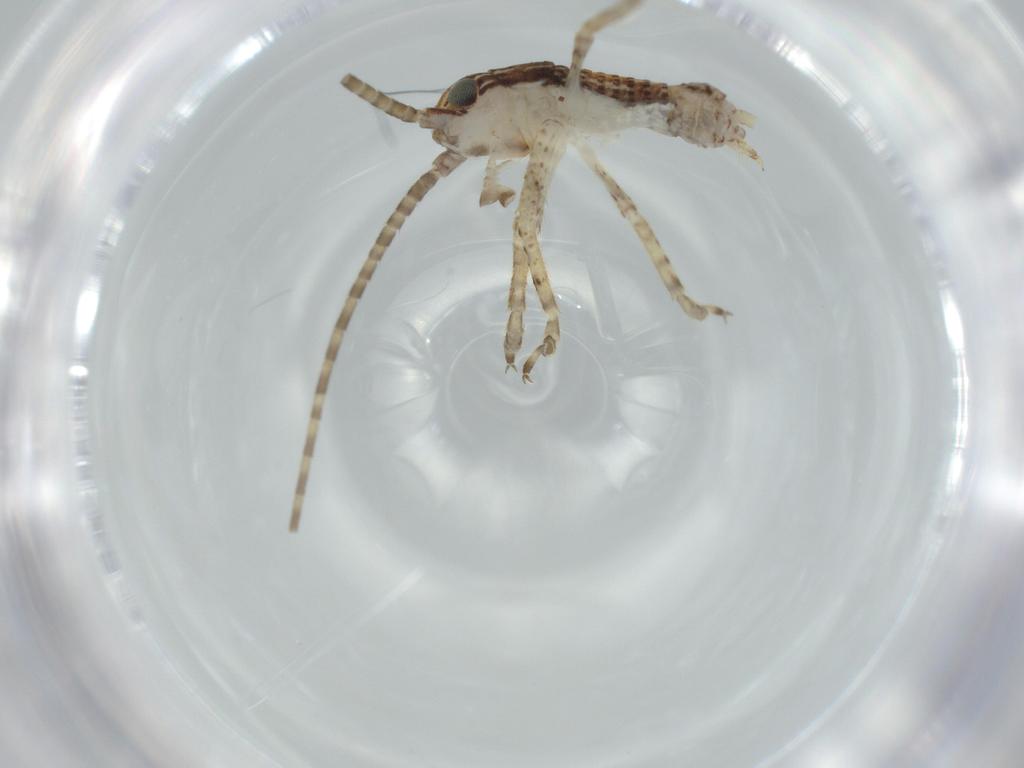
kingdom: Animalia
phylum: Arthropoda
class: Insecta
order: Orthoptera
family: Gryllidae
